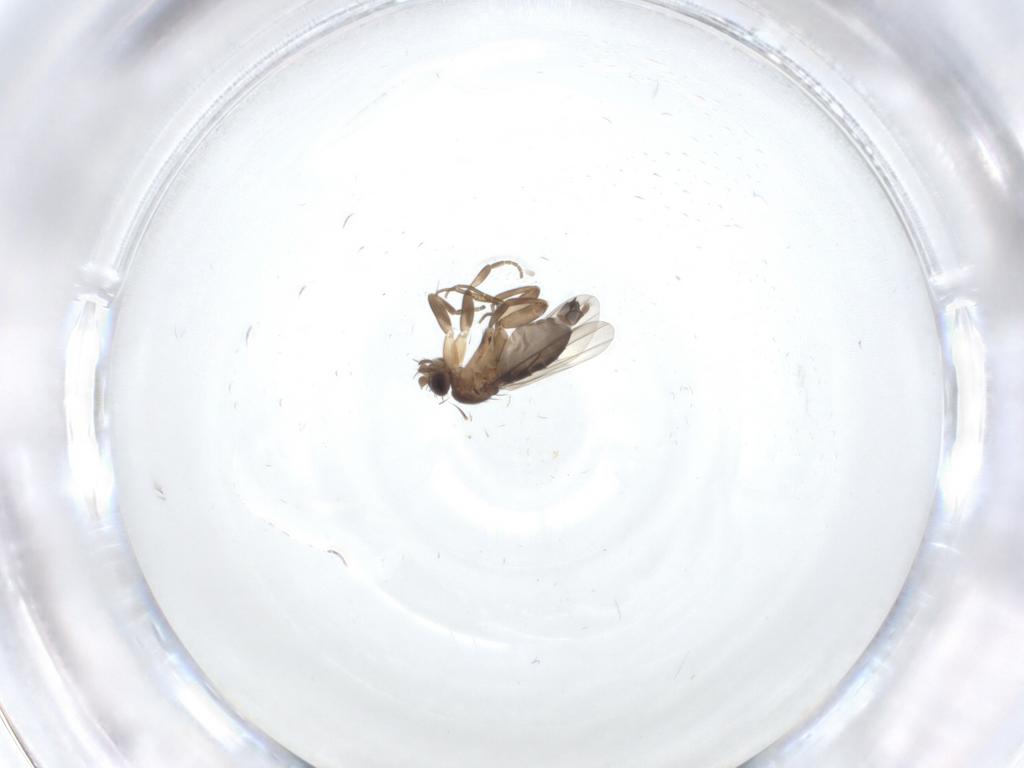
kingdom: Animalia
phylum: Arthropoda
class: Insecta
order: Diptera
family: Phoridae
